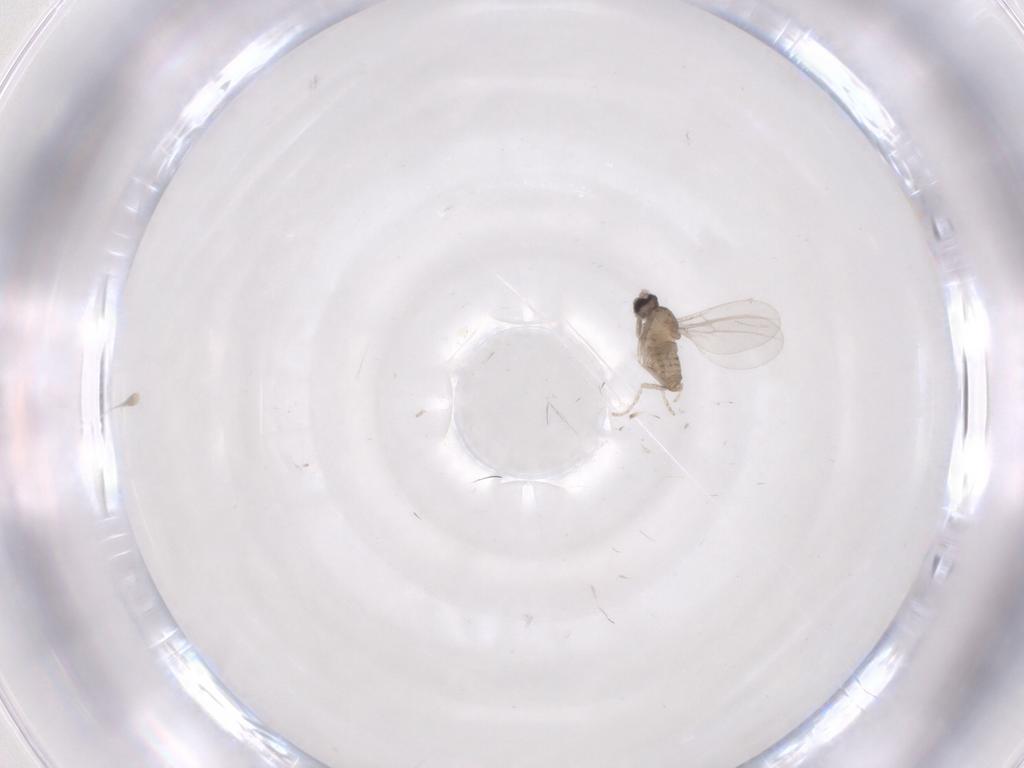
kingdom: Animalia
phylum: Arthropoda
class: Insecta
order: Diptera
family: Cecidomyiidae
